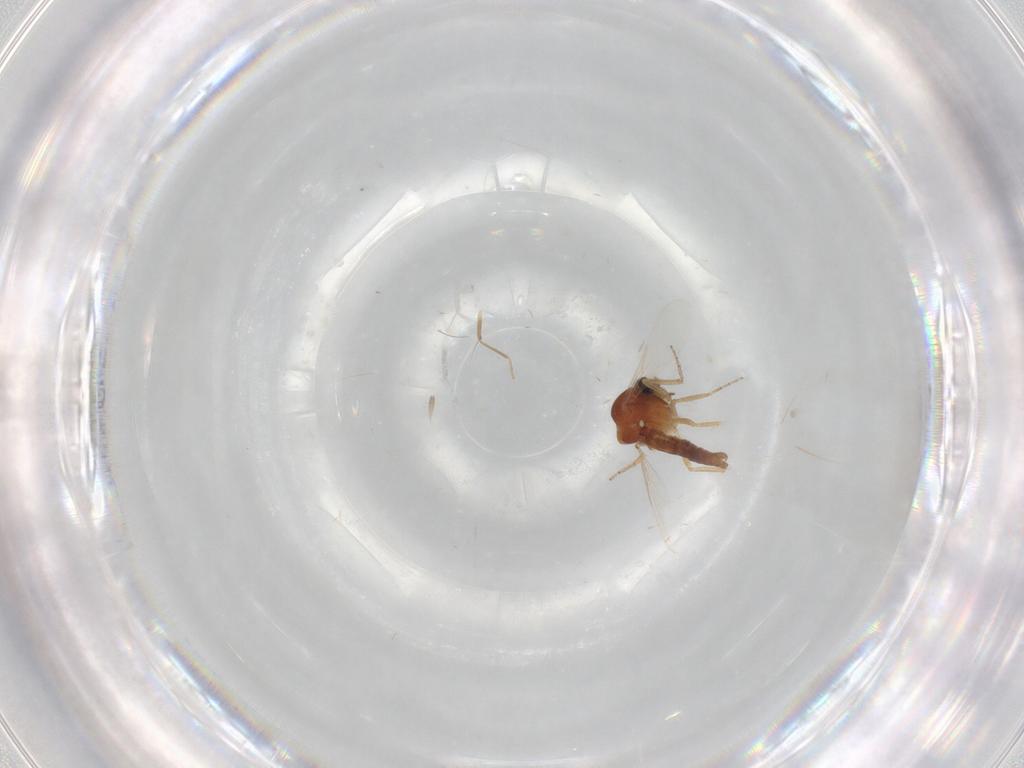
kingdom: Animalia
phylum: Arthropoda
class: Insecta
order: Diptera
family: Ceratopogonidae
